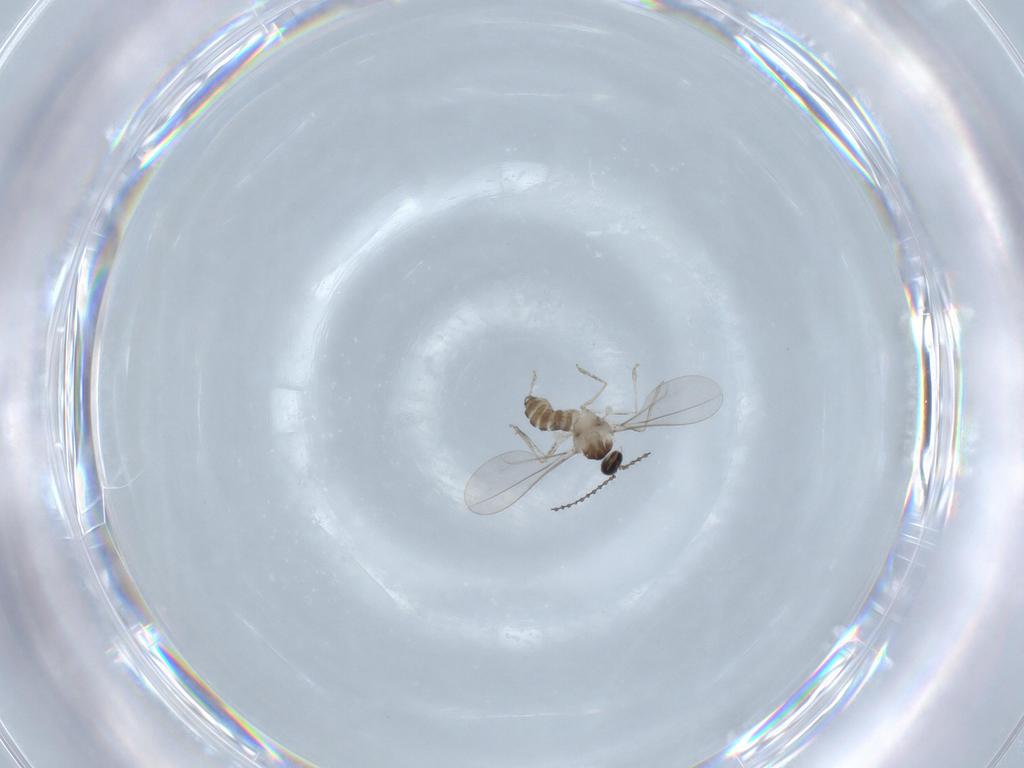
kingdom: Animalia
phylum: Arthropoda
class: Insecta
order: Diptera
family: Cecidomyiidae
